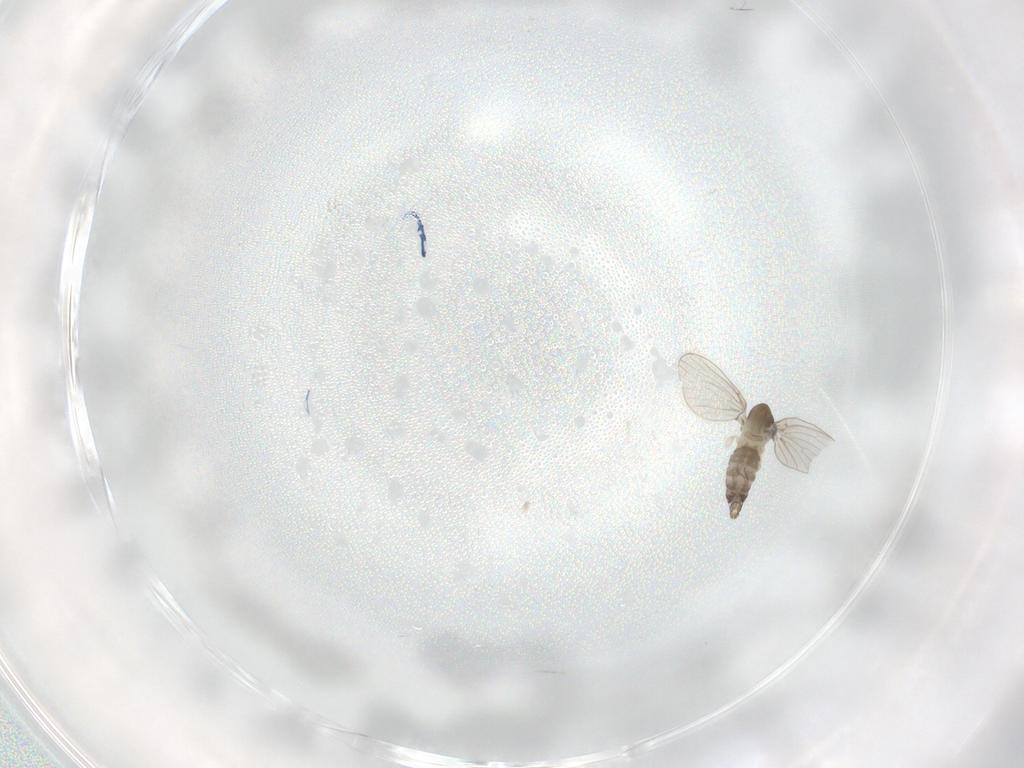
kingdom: Animalia
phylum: Arthropoda
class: Insecta
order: Diptera
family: Psychodidae
